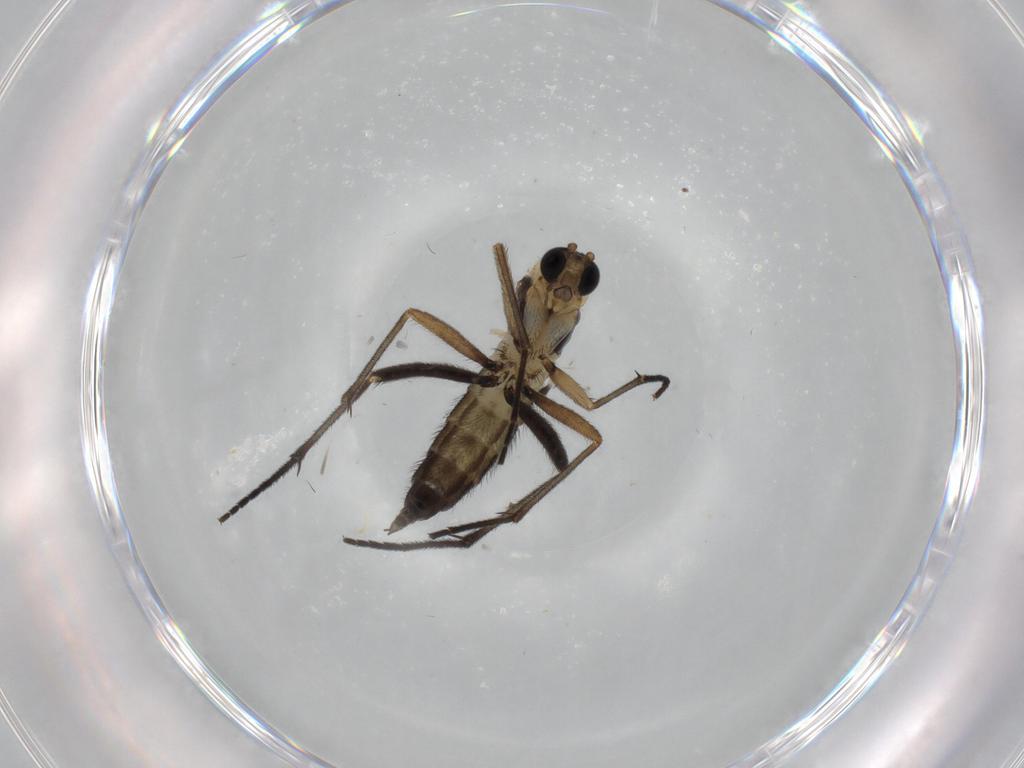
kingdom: Animalia
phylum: Arthropoda
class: Insecta
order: Diptera
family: Sciaridae
